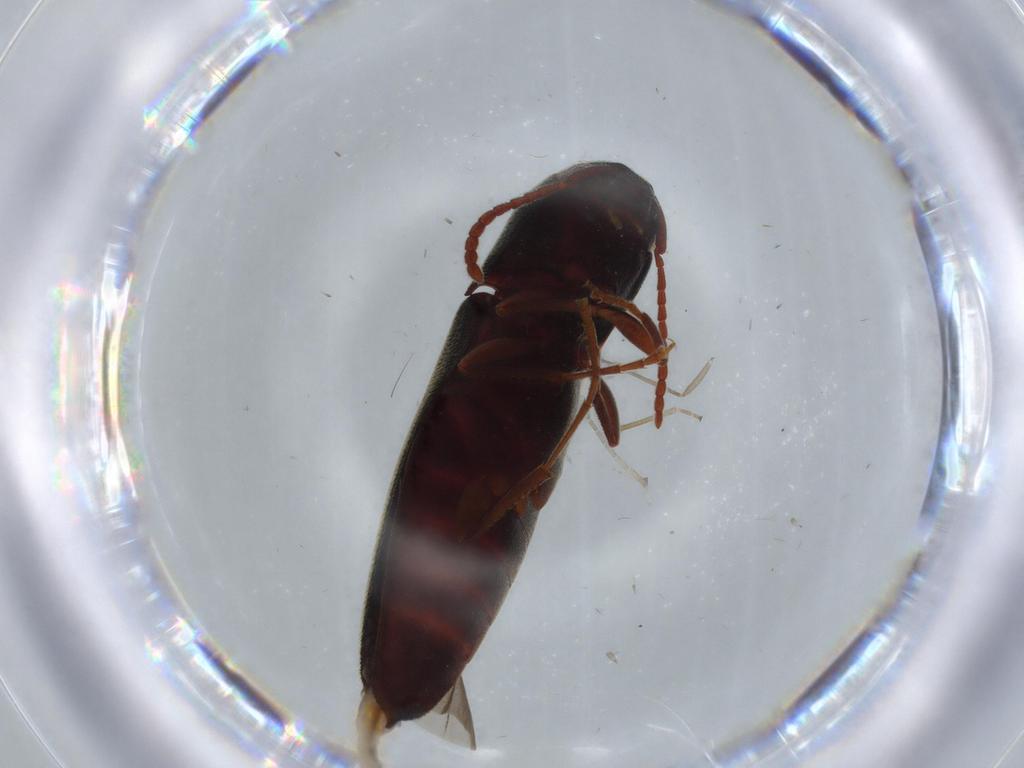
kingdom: Animalia
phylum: Arthropoda
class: Insecta
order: Coleoptera
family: Eucnemidae
